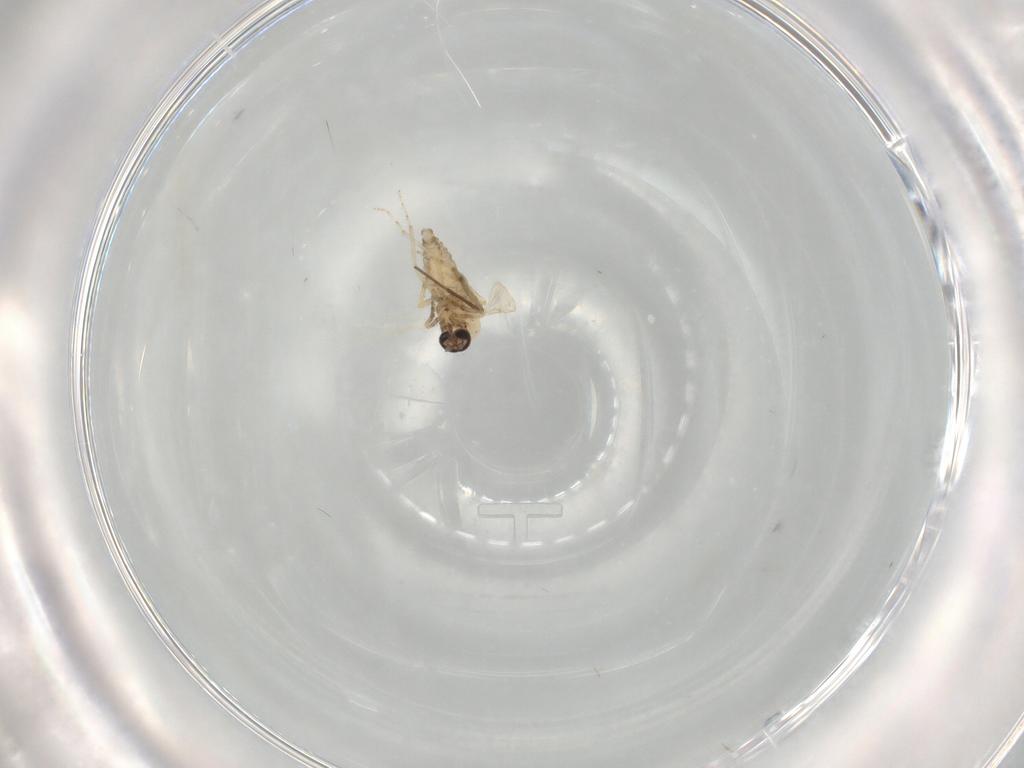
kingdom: Animalia
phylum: Arthropoda
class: Insecta
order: Diptera
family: Chironomidae
